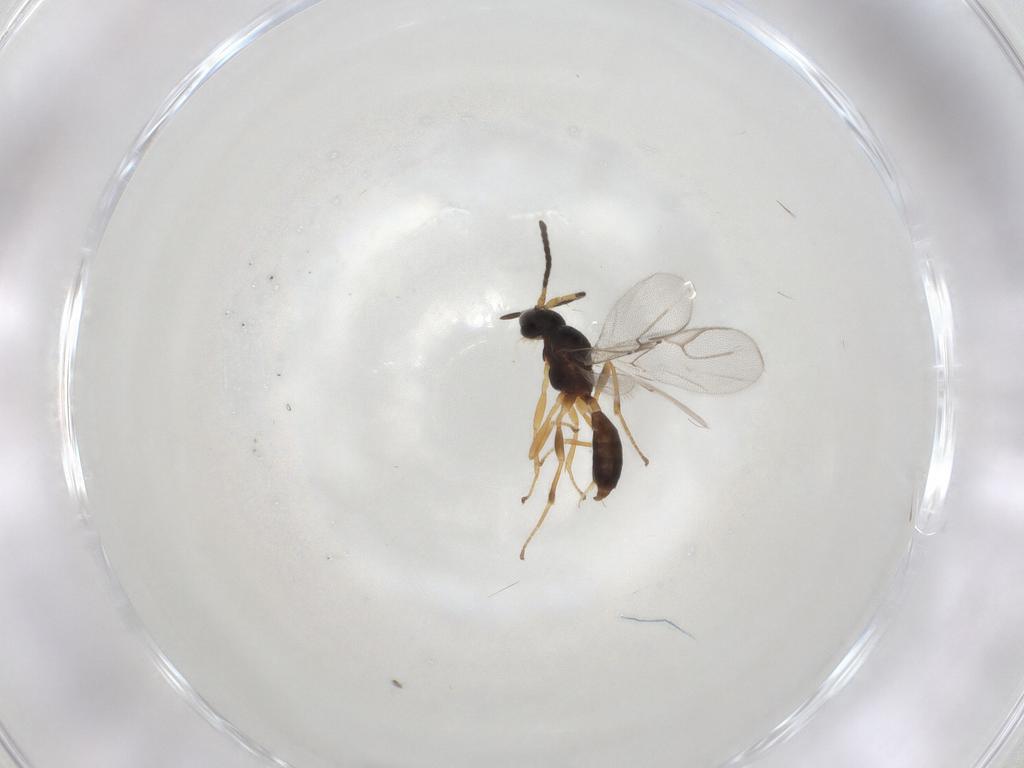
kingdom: Animalia
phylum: Arthropoda
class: Insecta
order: Hymenoptera
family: Braconidae
